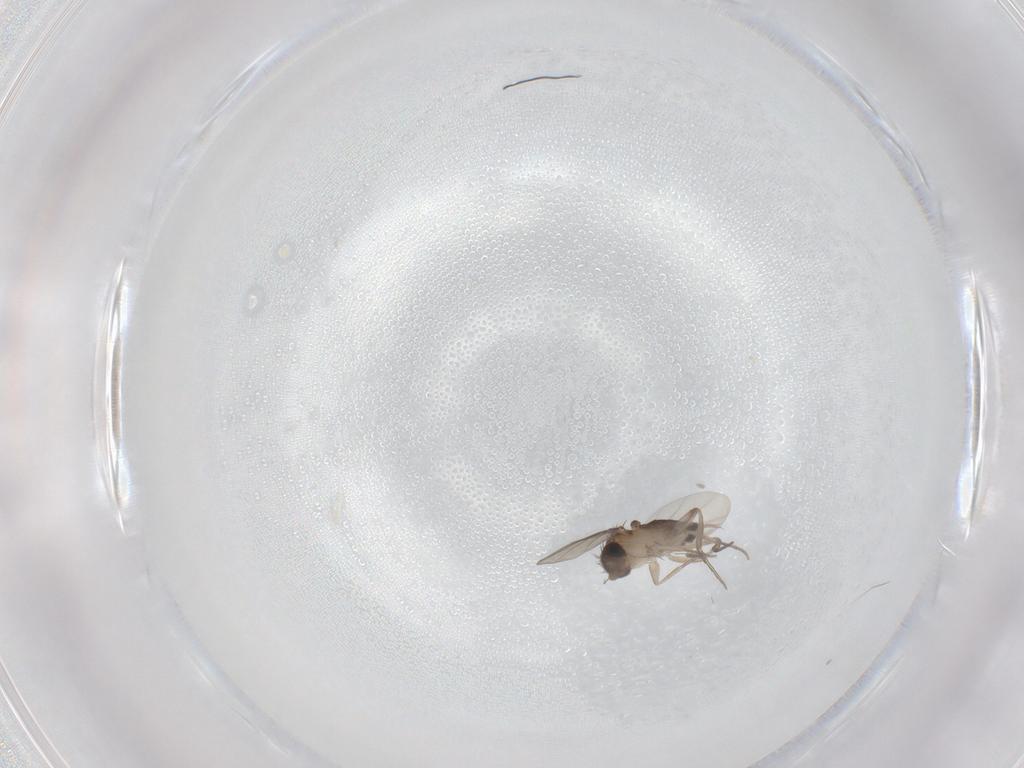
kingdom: Animalia
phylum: Arthropoda
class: Insecta
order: Diptera
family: Phoridae
